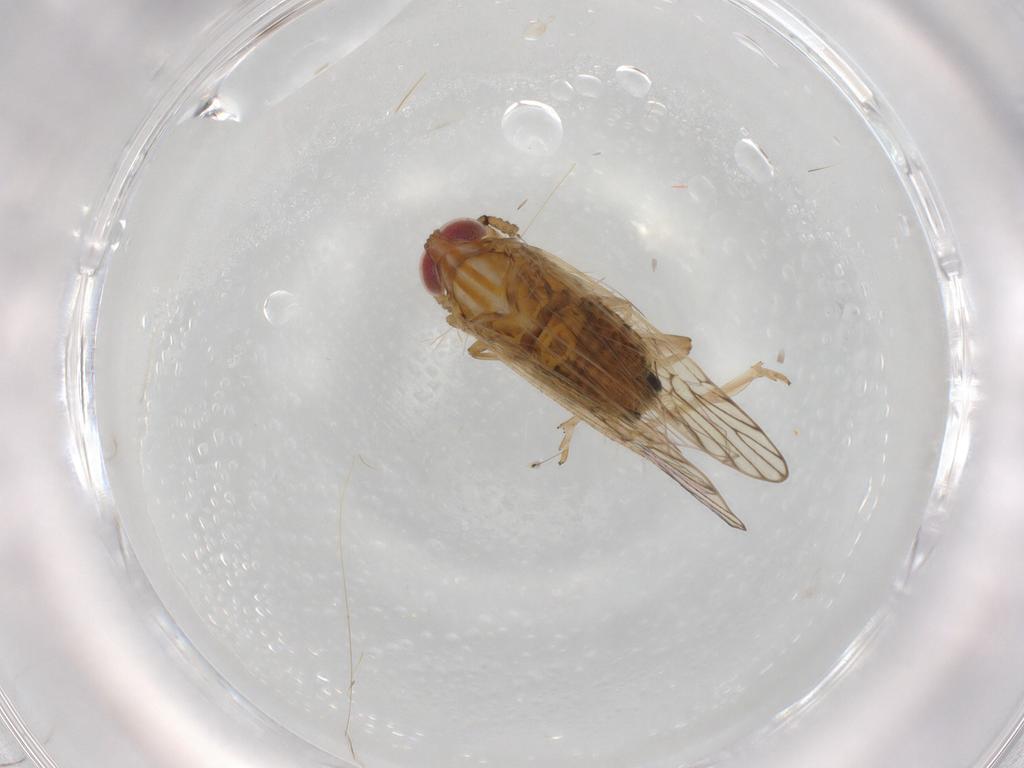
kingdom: Animalia
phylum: Arthropoda
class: Insecta
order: Hemiptera
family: Delphacidae
